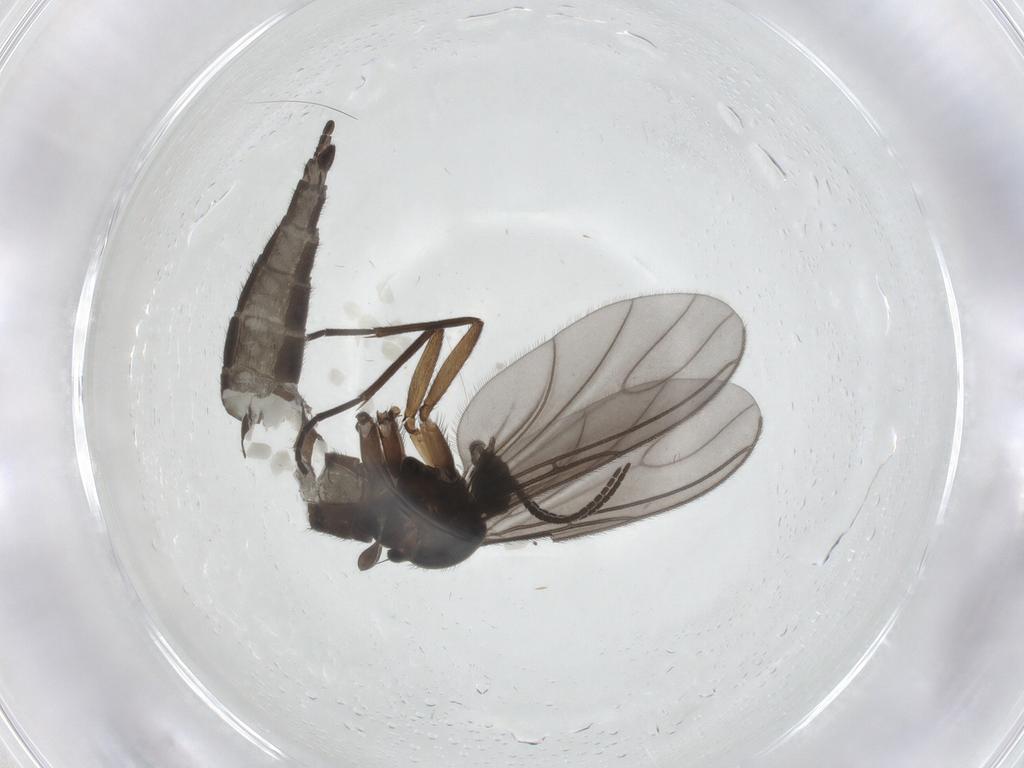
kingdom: Animalia
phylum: Arthropoda
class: Insecta
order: Diptera
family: Sciaridae
